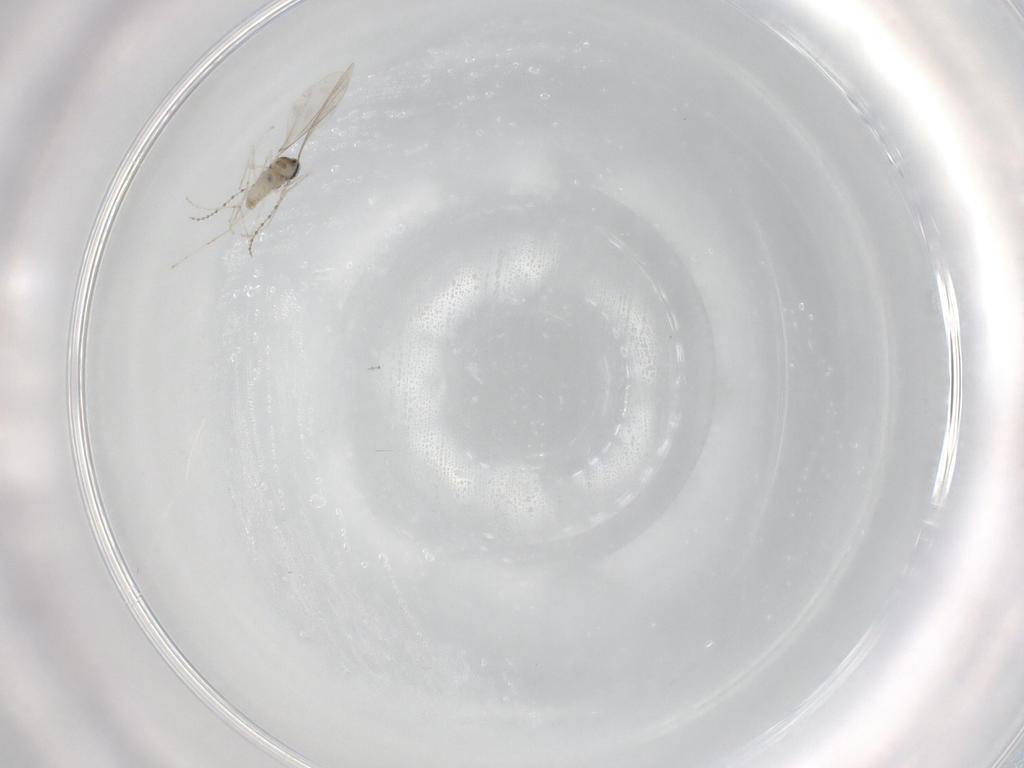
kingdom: Animalia
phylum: Arthropoda
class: Insecta
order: Diptera
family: Cecidomyiidae
